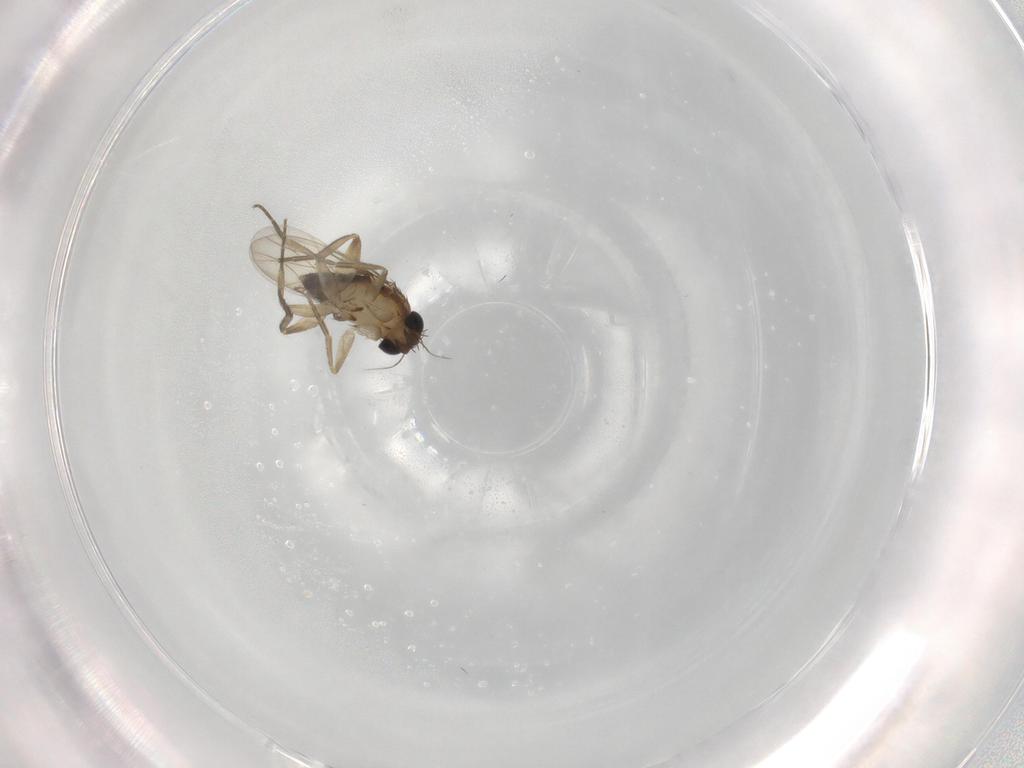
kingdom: Animalia
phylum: Arthropoda
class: Insecta
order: Diptera
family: Phoridae
